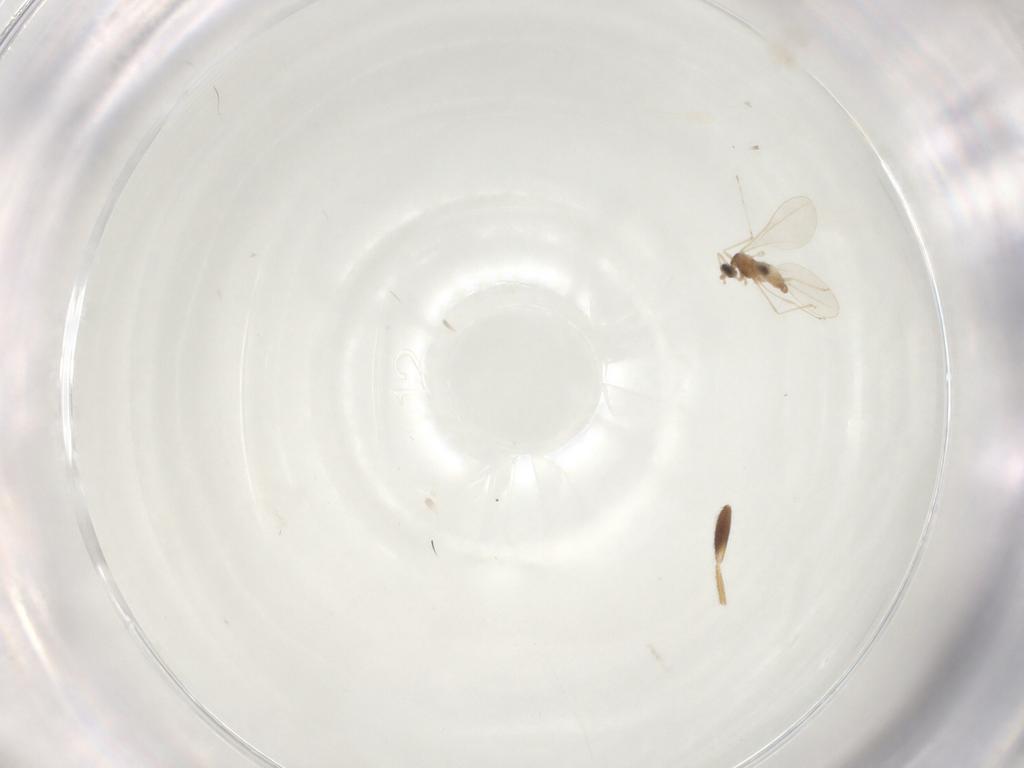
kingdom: Animalia
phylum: Arthropoda
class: Insecta
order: Diptera
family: Cecidomyiidae
